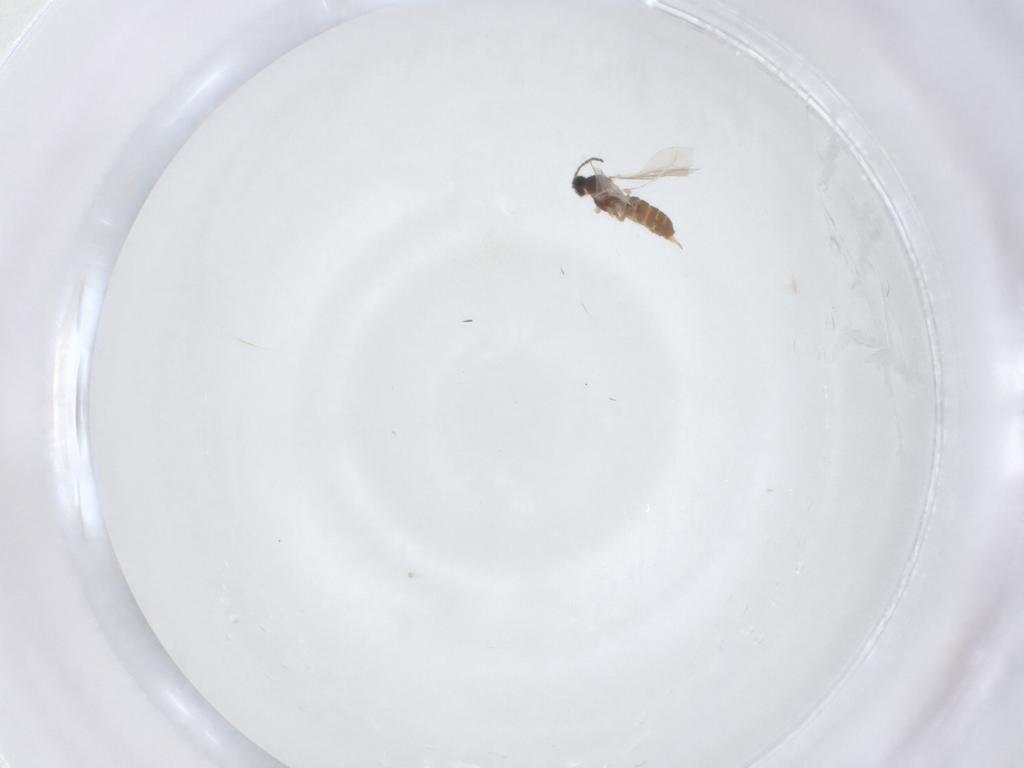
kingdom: Animalia
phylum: Arthropoda
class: Insecta
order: Diptera
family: Cecidomyiidae
